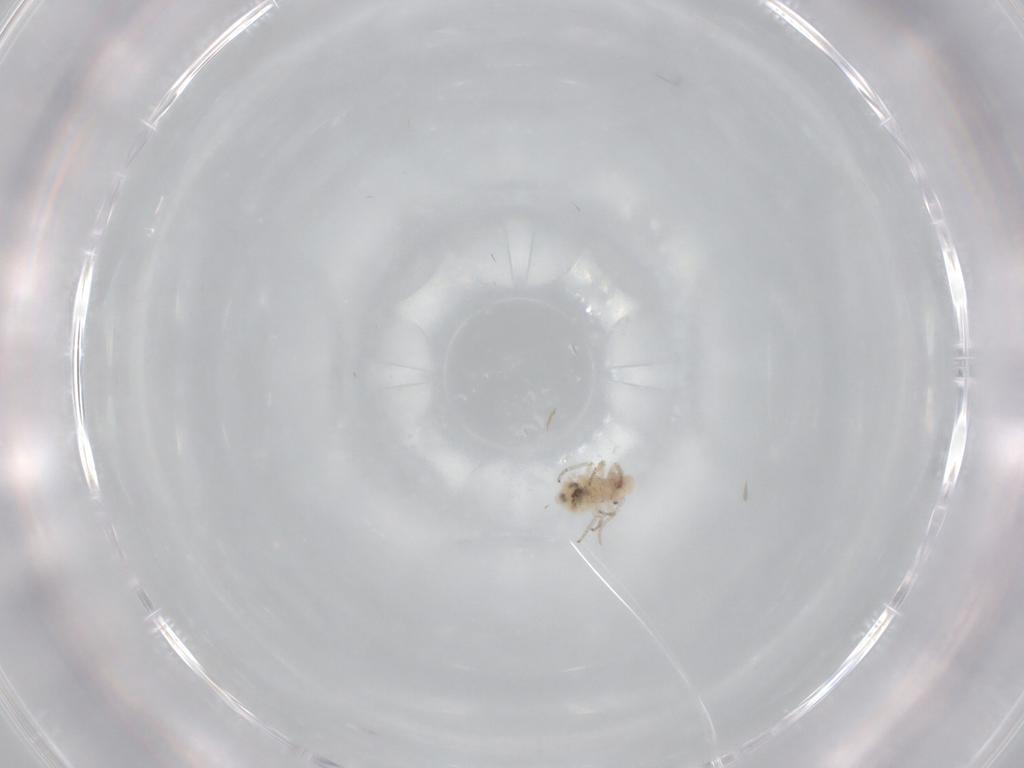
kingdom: Animalia
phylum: Arthropoda
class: Insecta
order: Psocodea
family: Peripsocidae
